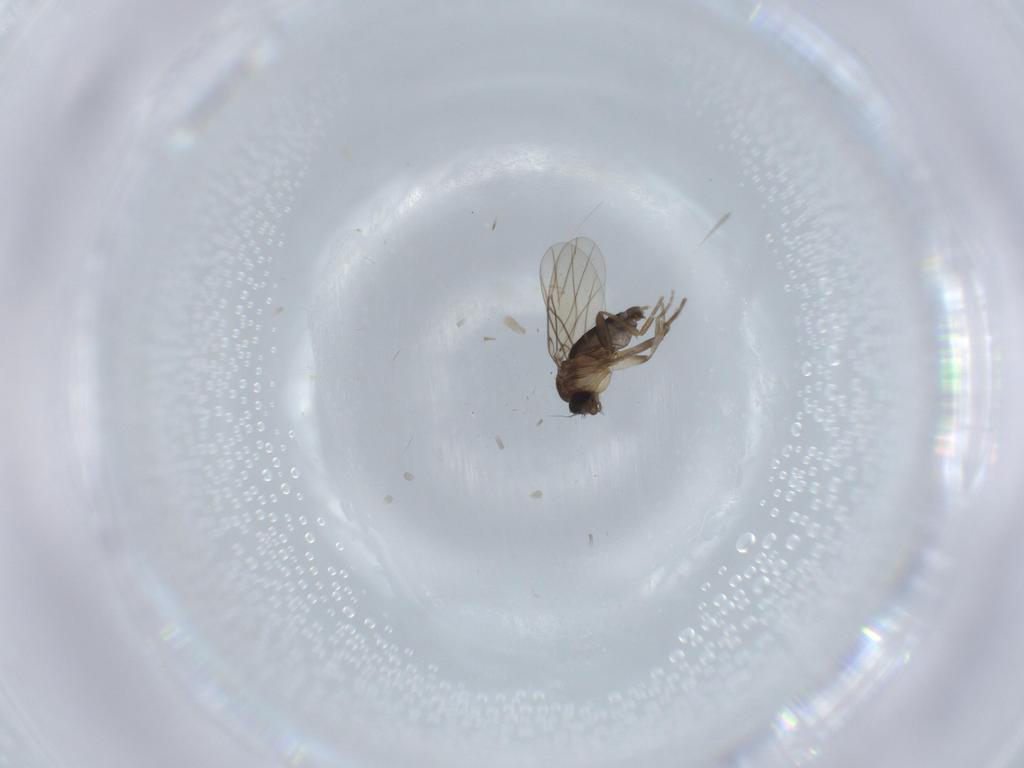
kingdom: Animalia
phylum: Arthropoda
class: Insecta
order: Diptera
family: Phoridae
